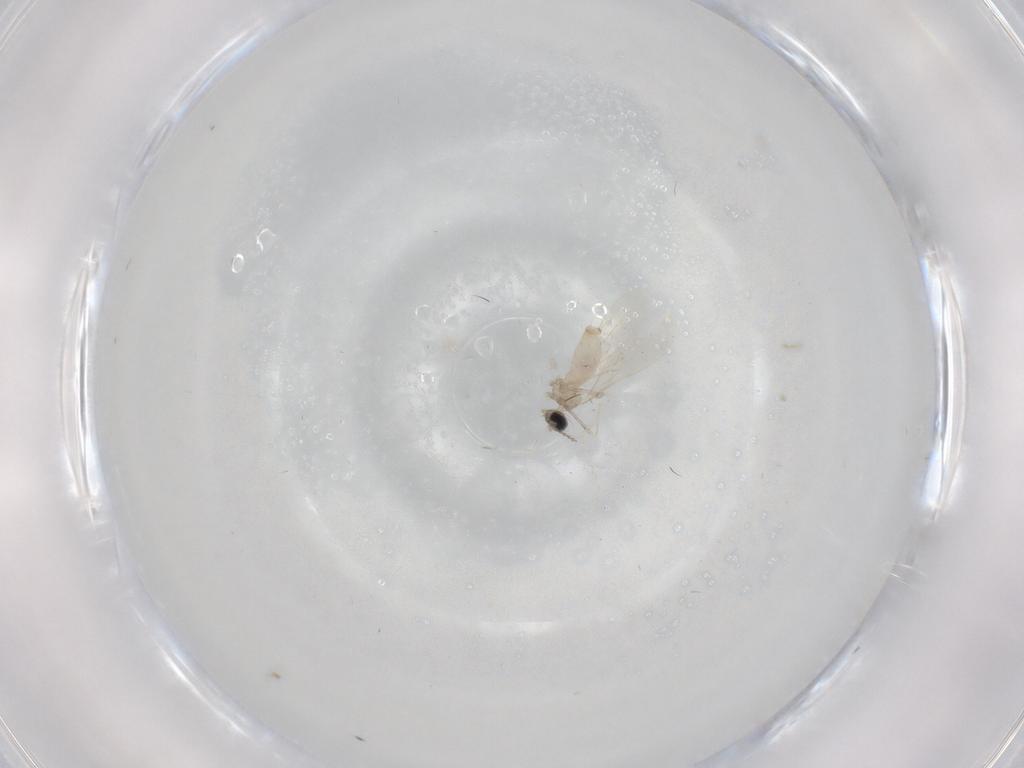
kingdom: Animalia
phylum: Arthropoda
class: Insecta
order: Diptera
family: Cecidomyiidae
